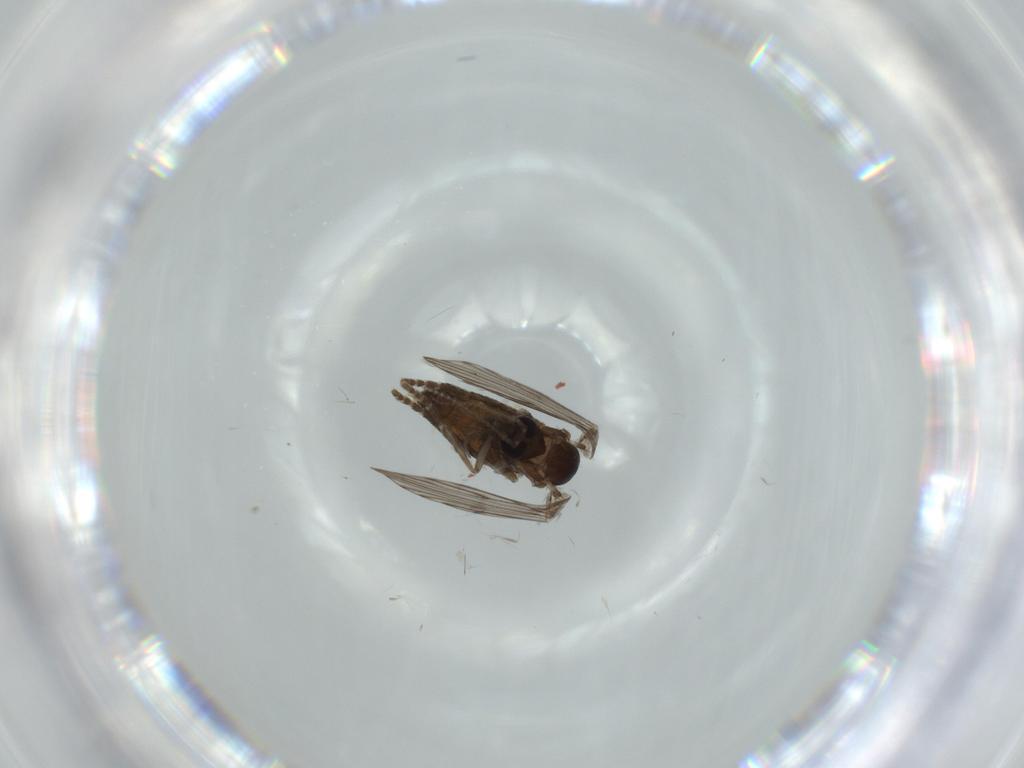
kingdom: Animalia
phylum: Arthropoda
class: Insecta
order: Diptera
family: Psychodidae
